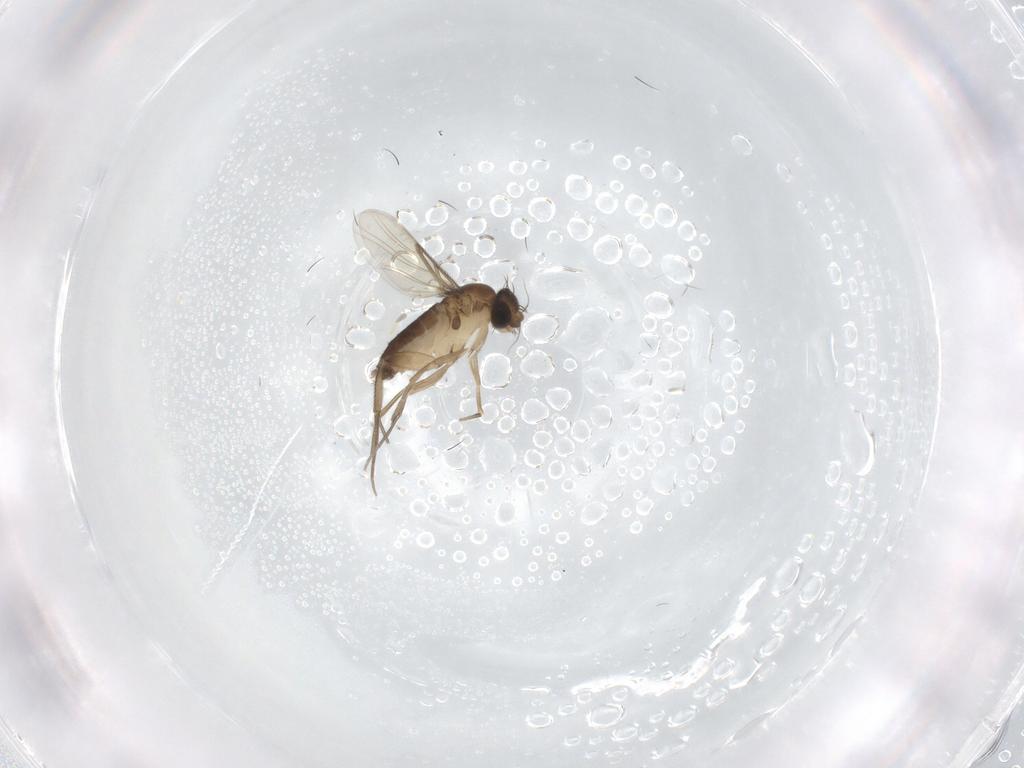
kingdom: Animalia
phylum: Arthropoda
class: Insecta
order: Diptera
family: Phoridae
